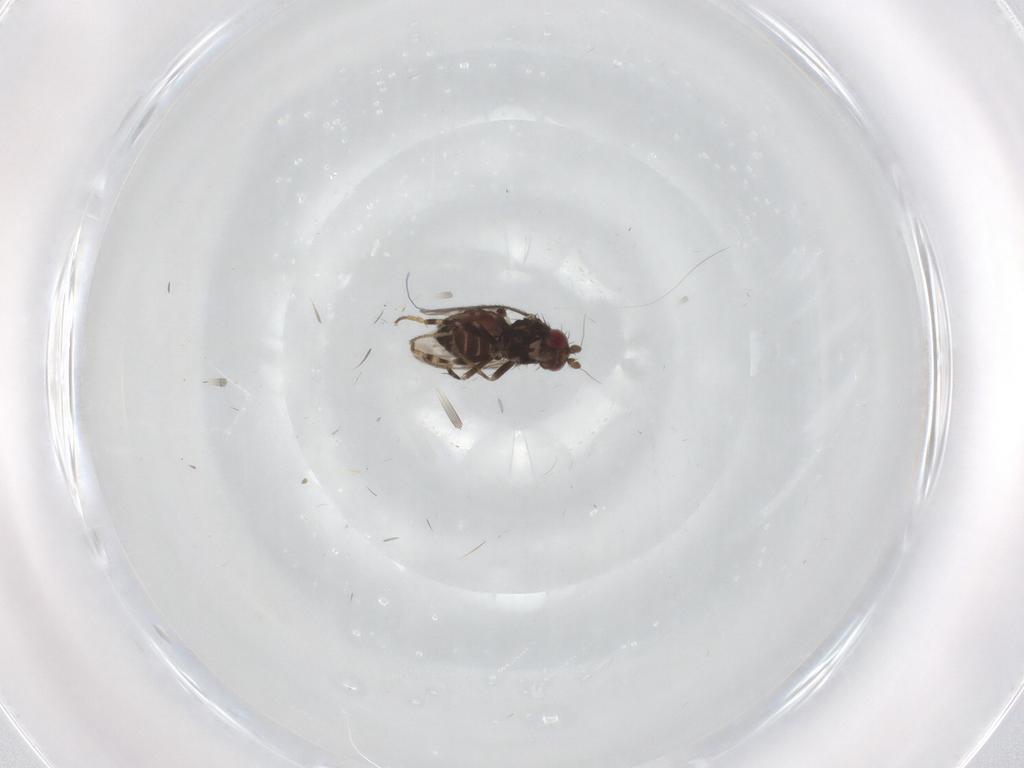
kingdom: Animalia
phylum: Arthropoda
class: Insecta
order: Diptera
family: Sphaeroceridae
